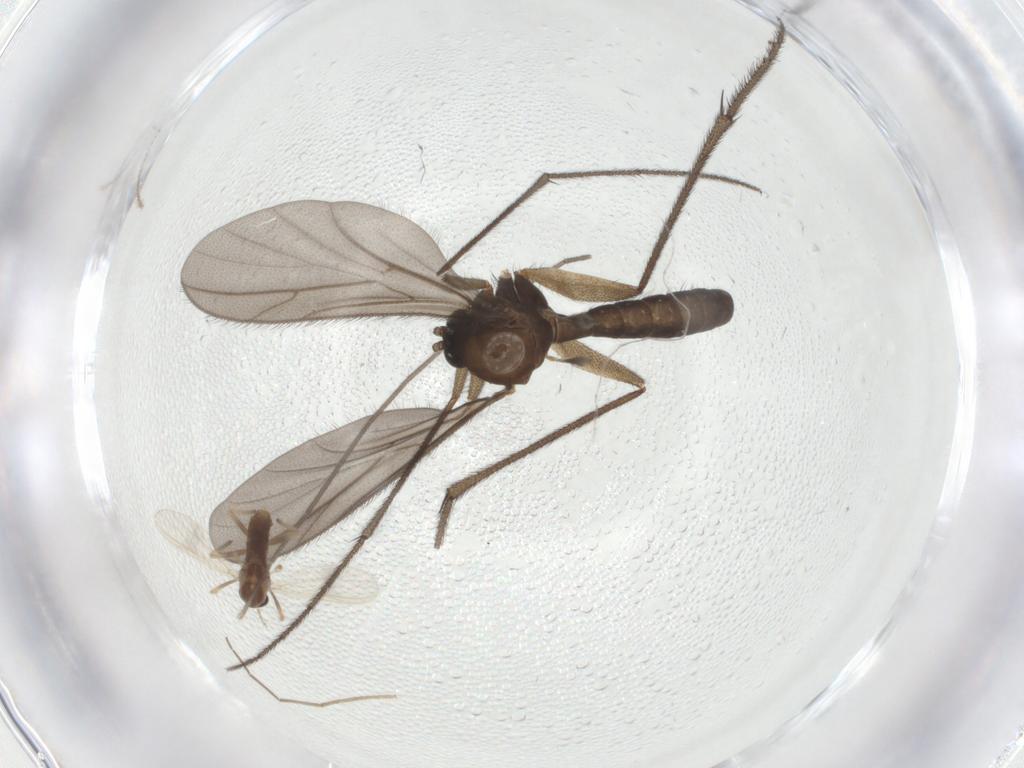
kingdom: Animalia
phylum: Arthropoda
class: Insecta
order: Diptera
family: Ditomyiidae
